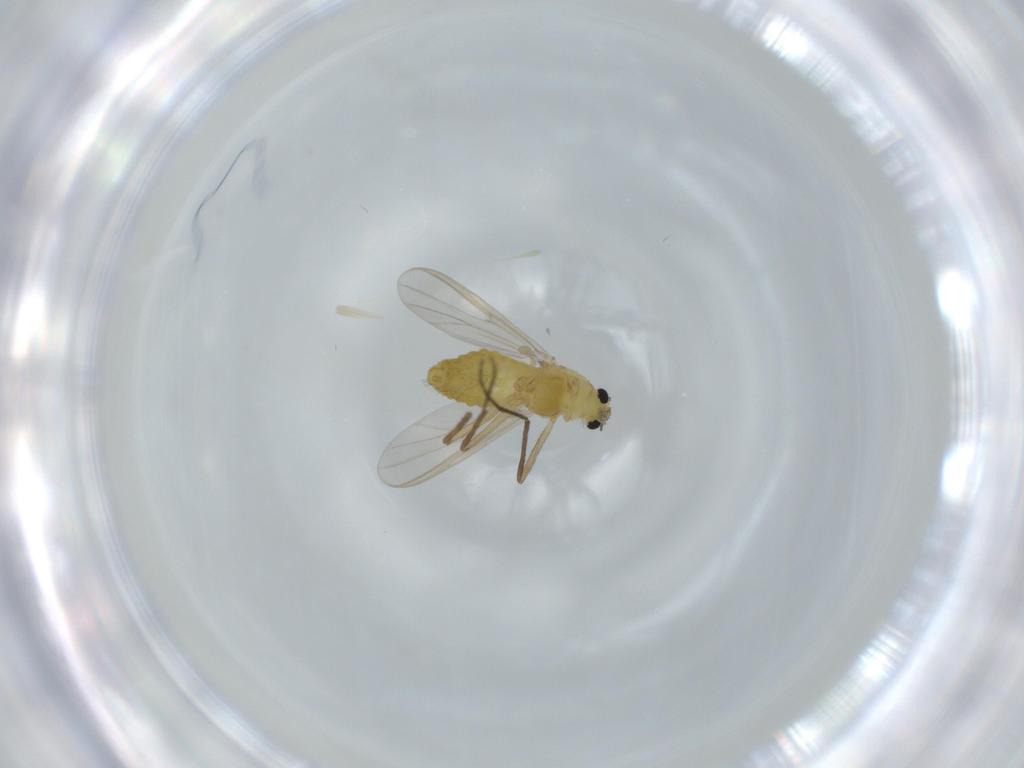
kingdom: Animalia
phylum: Arthropoda
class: Insecta
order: Diptera
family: Chironomidae
